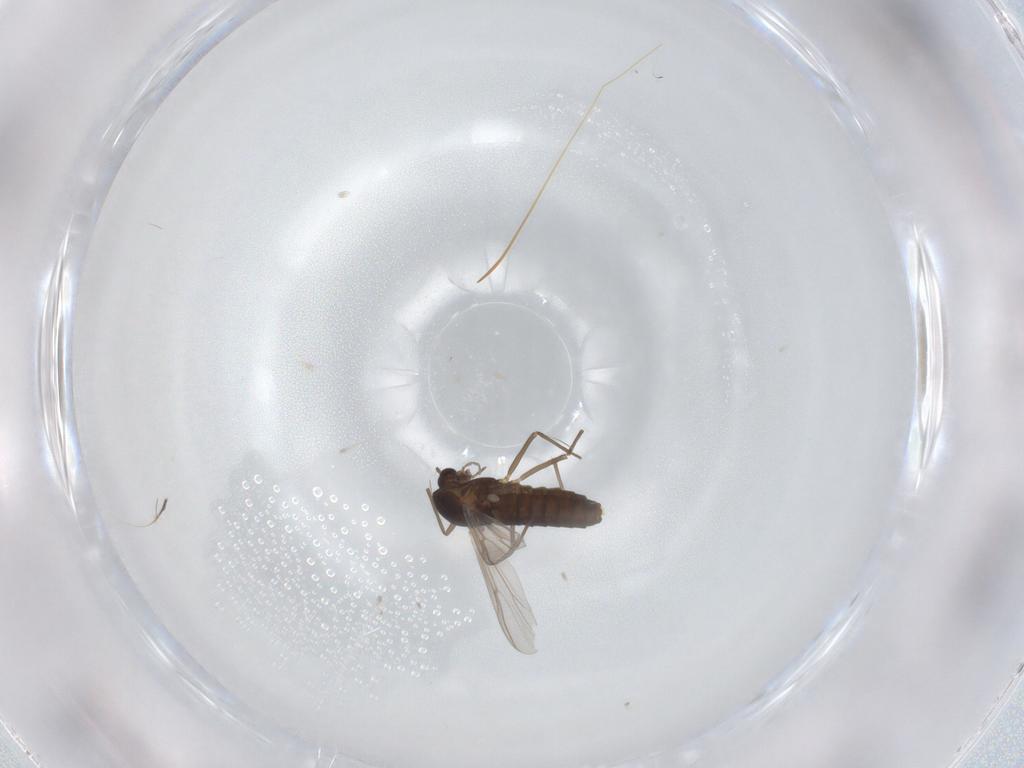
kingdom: Animalia
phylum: Arthropoda
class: Insecta
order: Diptera
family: Chironomidae
